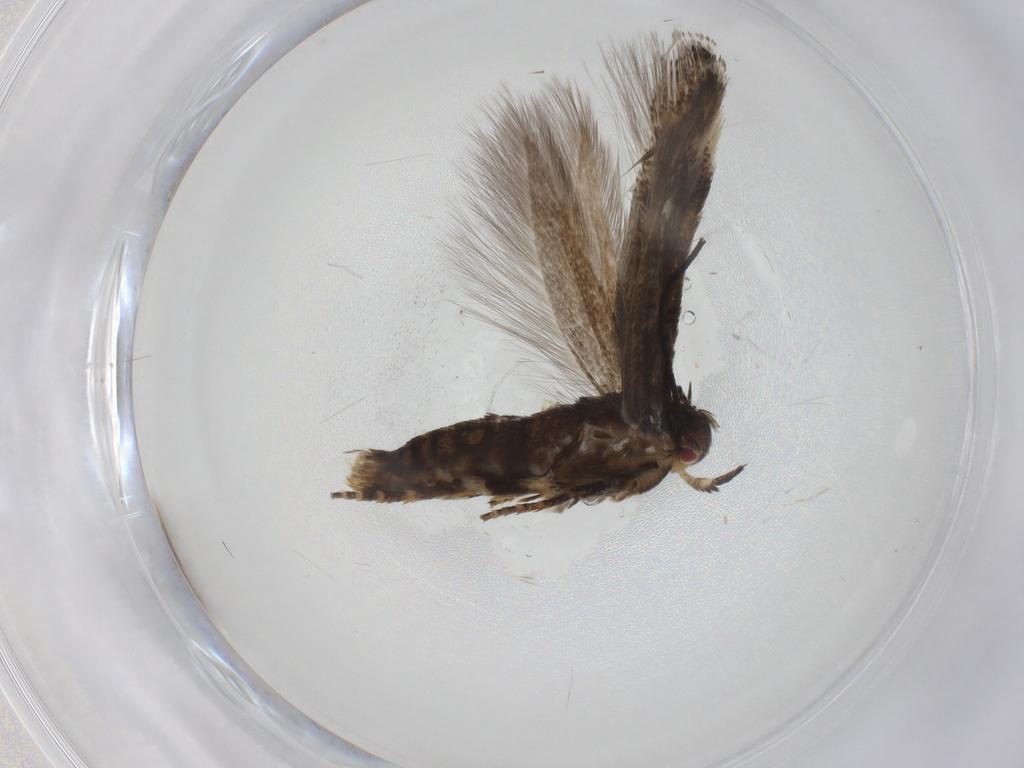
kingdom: Animalia
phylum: Arthropoda
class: Insecta
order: Lepidoptera
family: Momphidae
